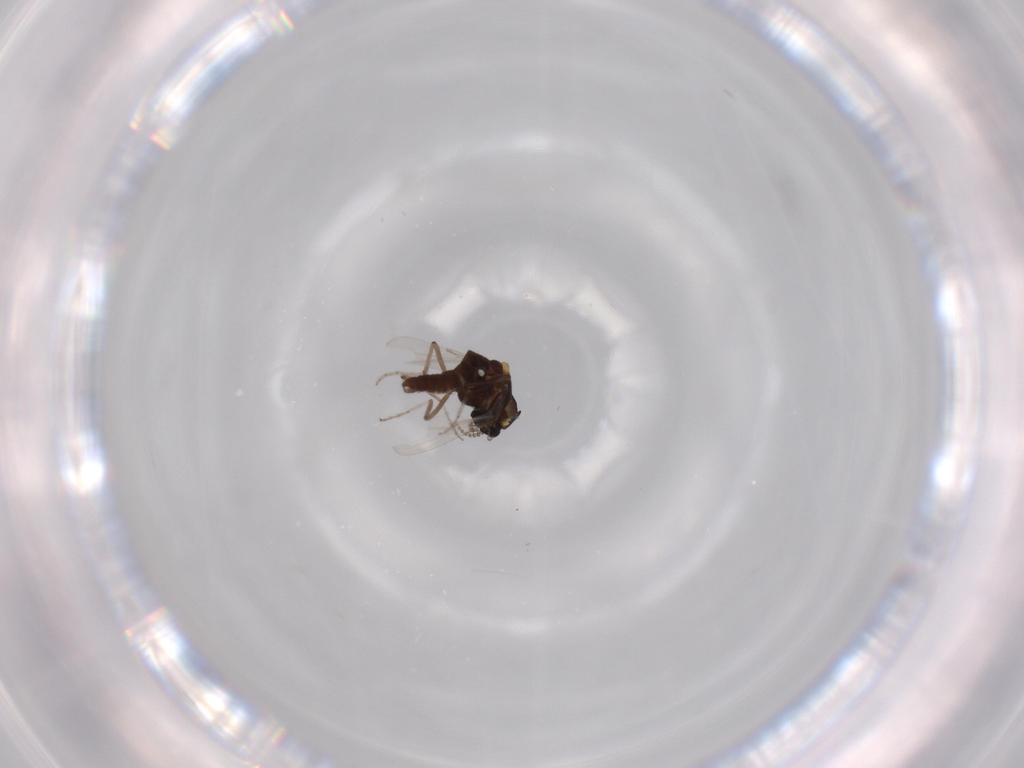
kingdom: Animalia
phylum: Arthropoda
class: Insecta
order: Diptera
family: Ceratopogonidae
